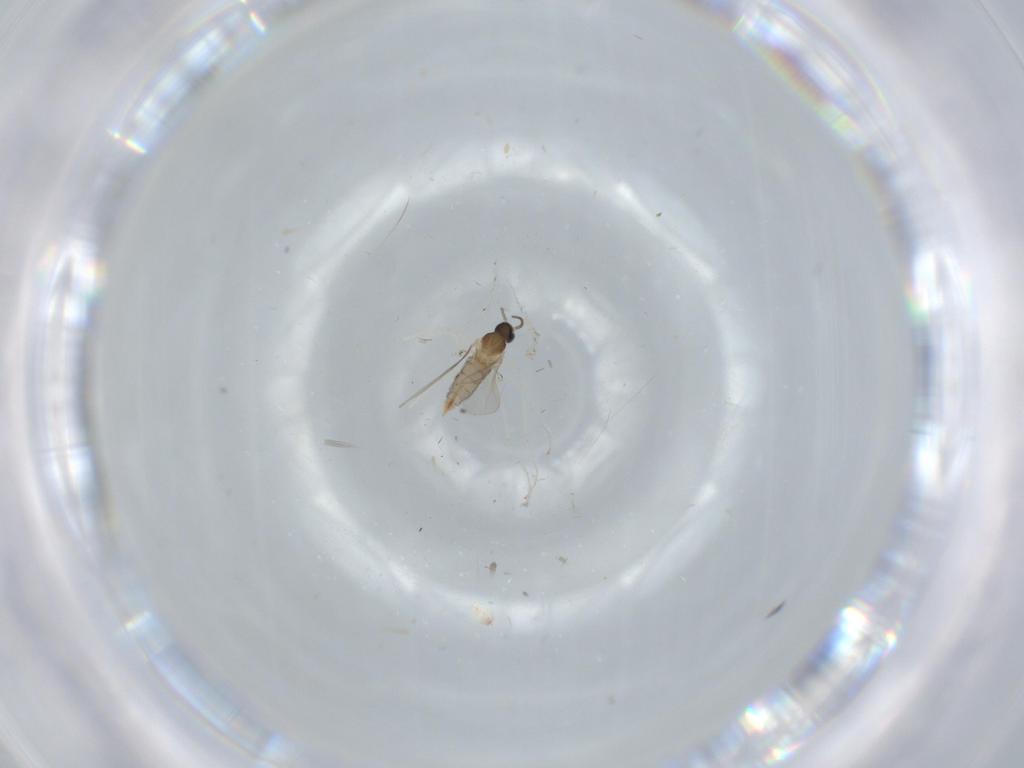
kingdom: Animalia
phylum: Arthropoda
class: Insecta
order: Diptera
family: Cecidomyiidae
